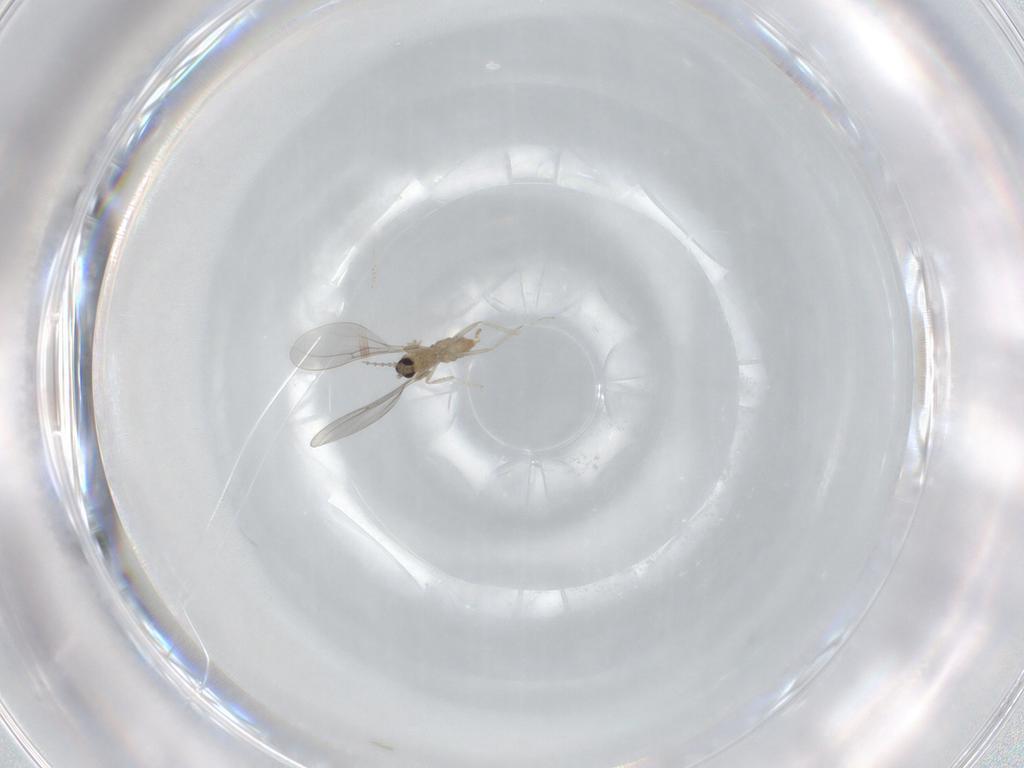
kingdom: Animalia
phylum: Arthropoda
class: Insecta
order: Diptera
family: Cecidomyiidae
